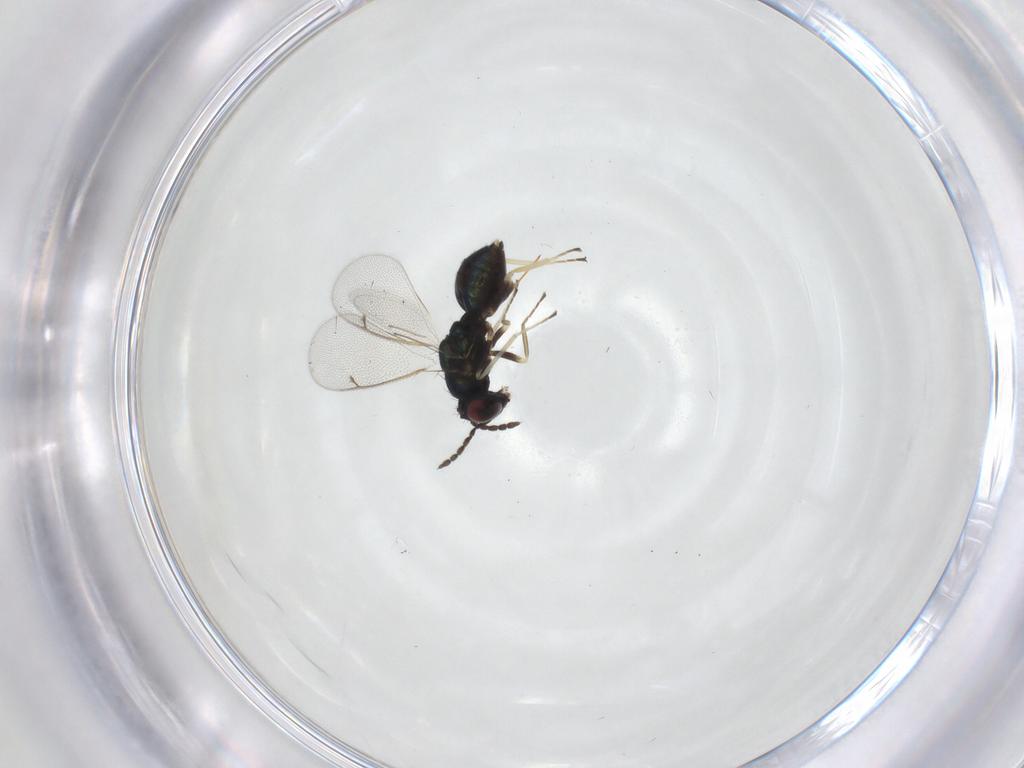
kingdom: Animalia
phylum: Arthropoda
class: Insecta
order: Hymenoptera
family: Eulophidae
